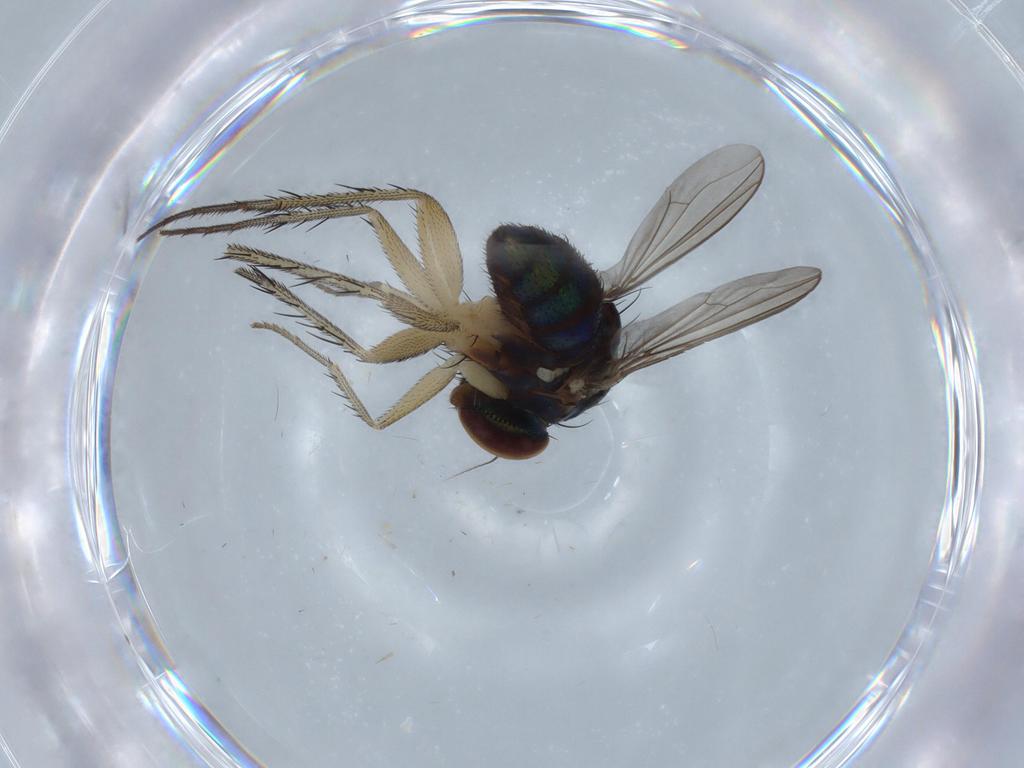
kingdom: Animalia
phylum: Arthropoda
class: Insecta
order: Diptera
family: Dolichopodidae
